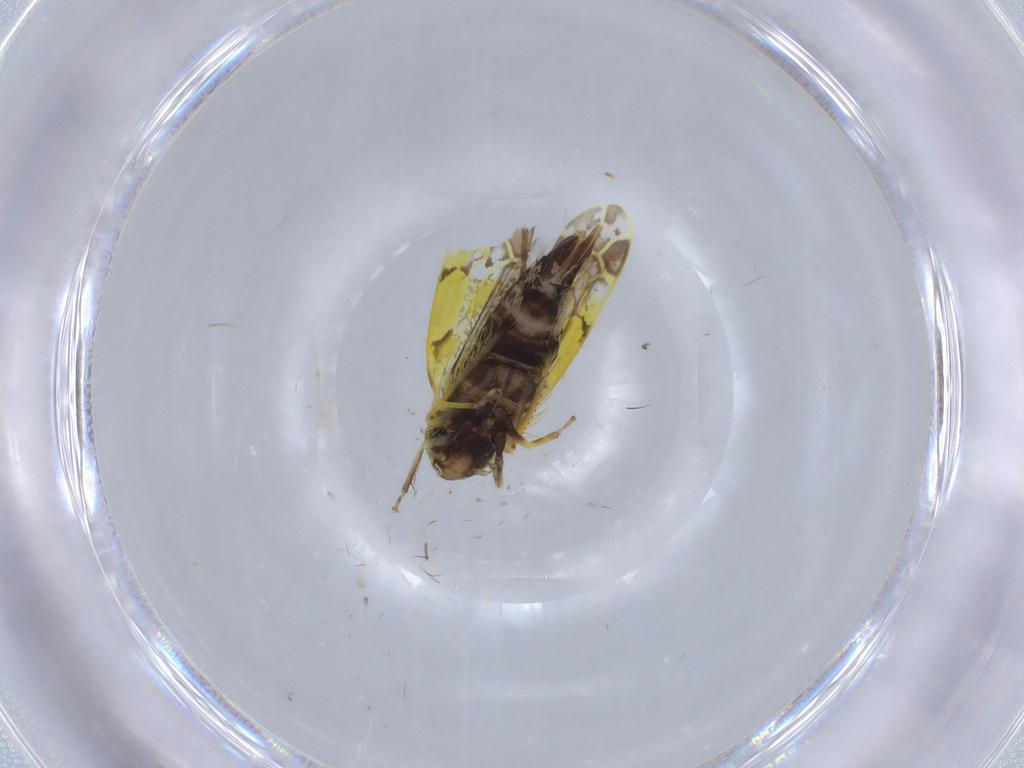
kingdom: Animalia
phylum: Arthropoda
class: Insecta
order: Hemiptera
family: Cicadellidae
